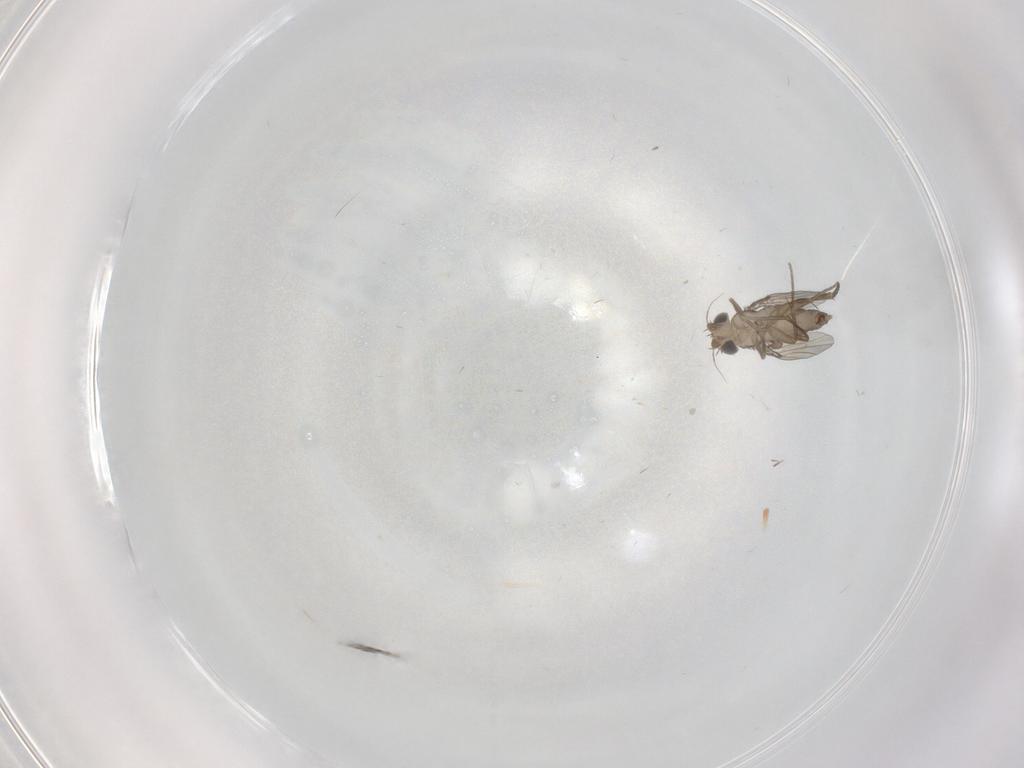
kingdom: Animalia
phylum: Arthropoda
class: Insecta
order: Diptera
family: Phoridae
